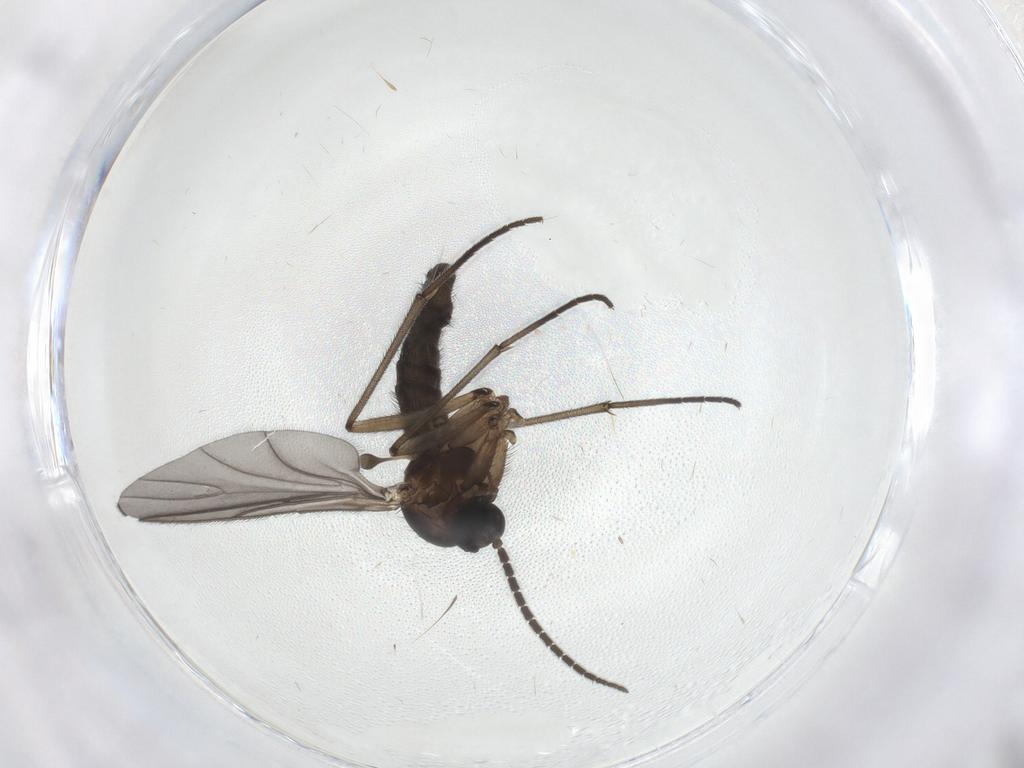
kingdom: Animalia
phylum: Arthropoda
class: Insecta
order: Diptera
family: Sciaridae
